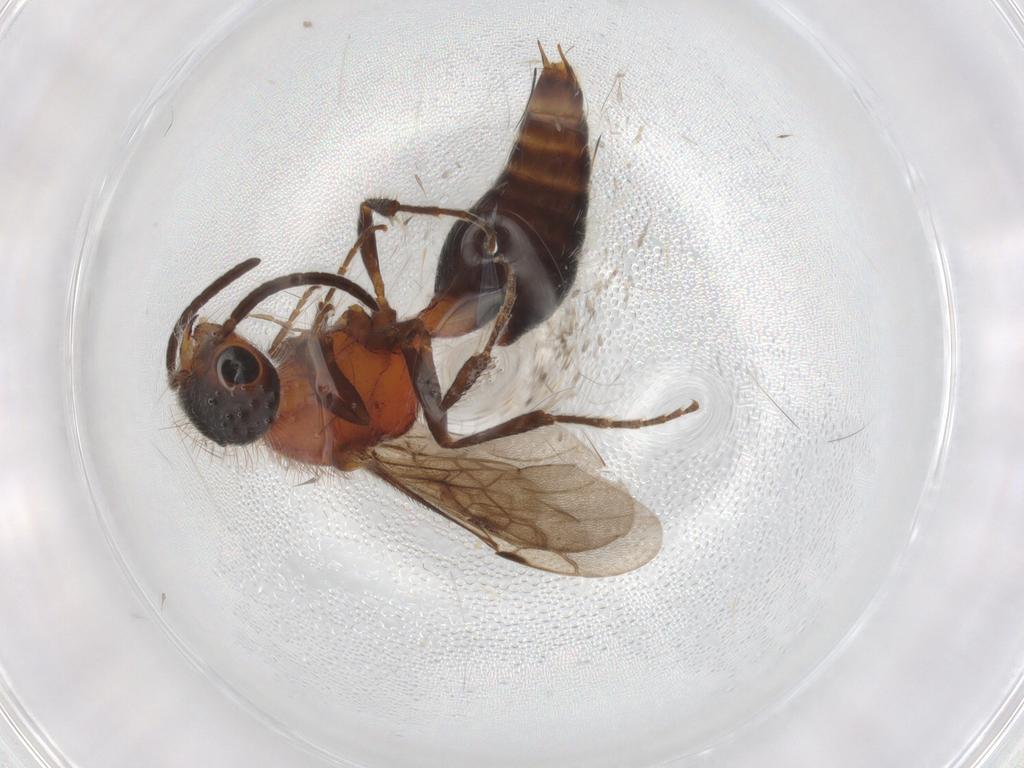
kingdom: Animalia
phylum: Arthropoda
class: Insecta
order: Hymenoptera
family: Mutillidae
